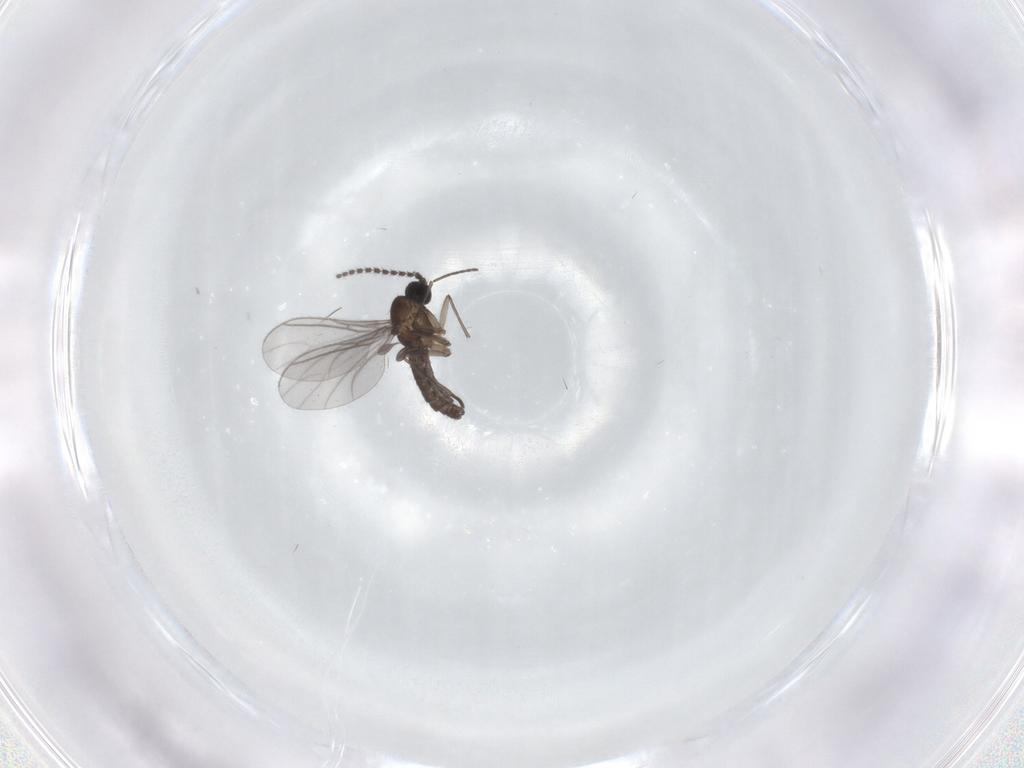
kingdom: Animalia
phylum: Arthropoda
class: Insecta
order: Diptera
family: Sciaridae
